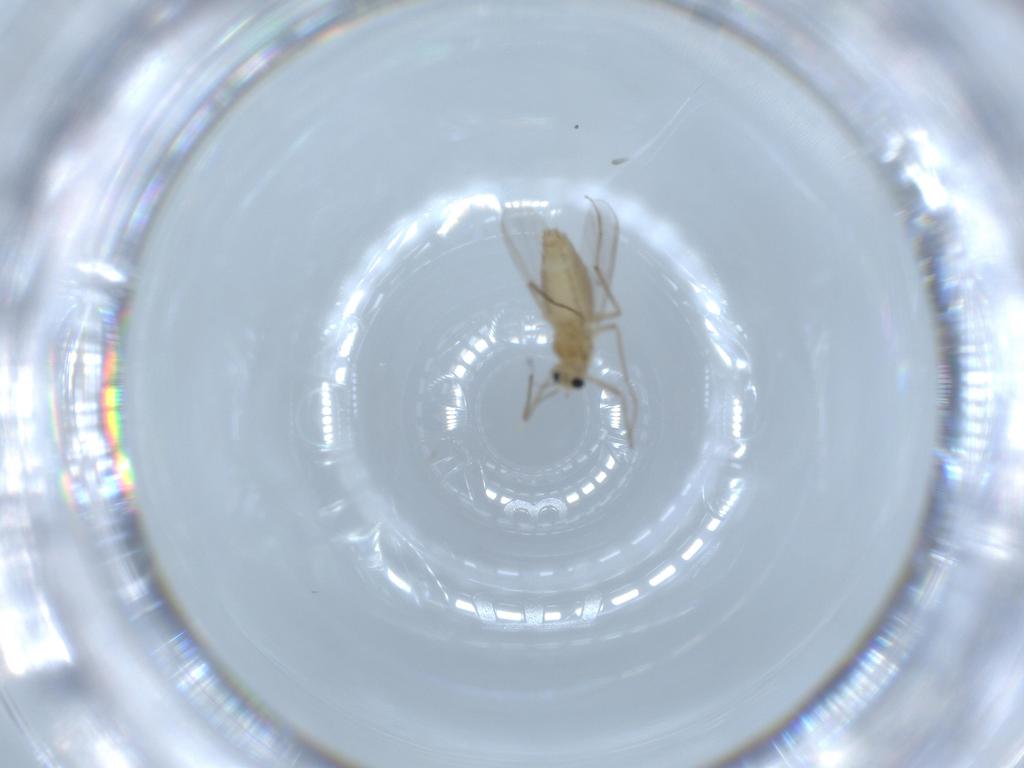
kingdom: Animalia
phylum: Arthropoda
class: Insecta
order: Diptera
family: Chironomidae
